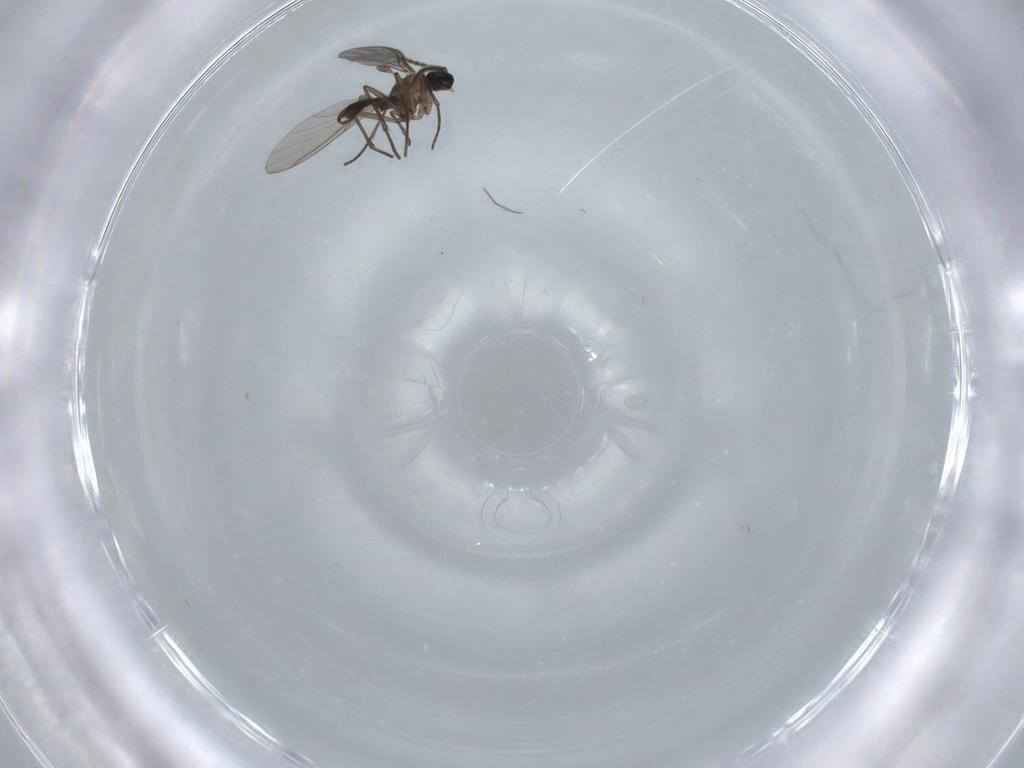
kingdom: Animalia
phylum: Arthropoda
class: Insecta
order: Diptera
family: Sciaridae
